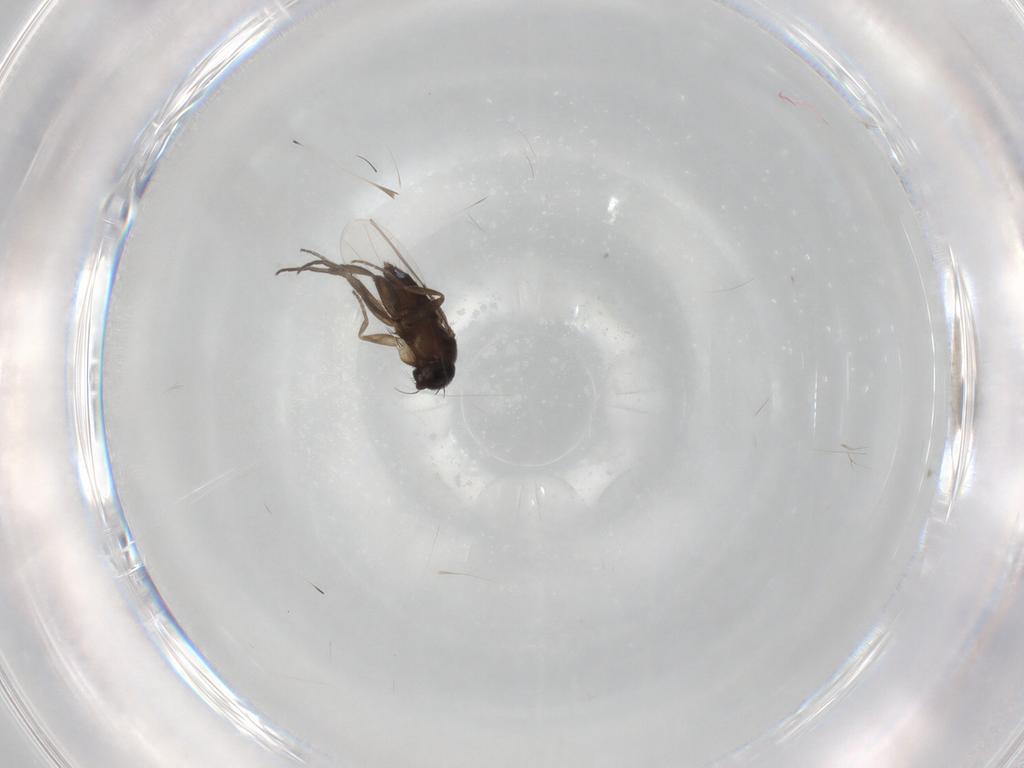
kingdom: Animalia
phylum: Arthropoda
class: Insecta
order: Diptera
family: Phoridae
